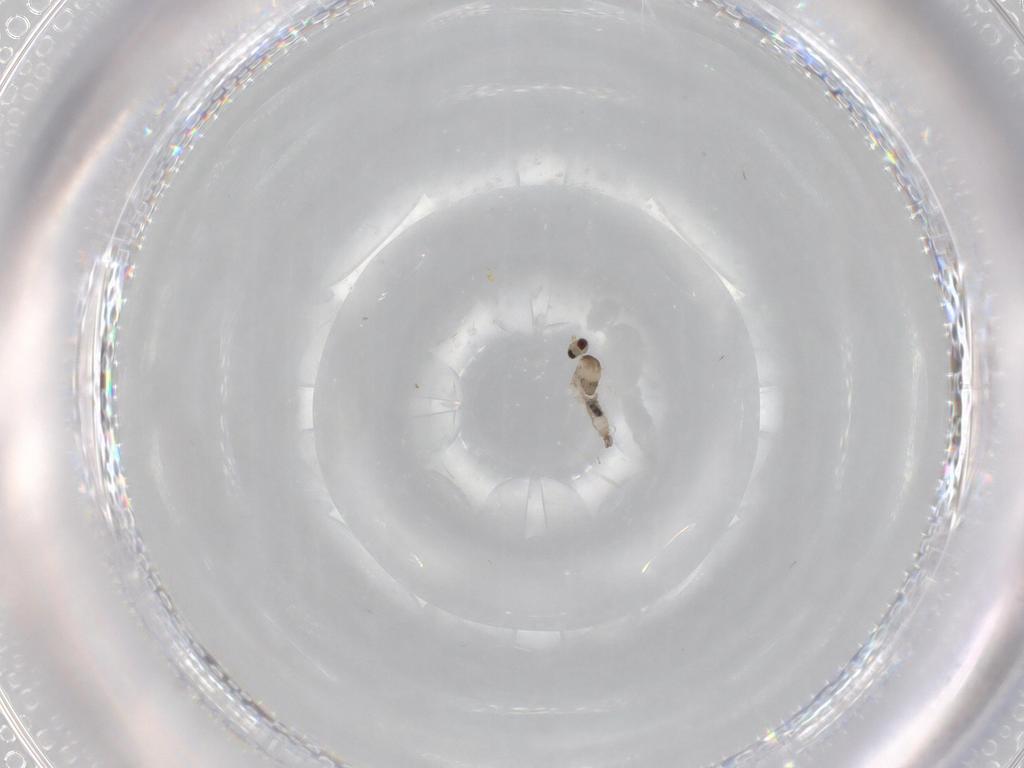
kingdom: Animalia
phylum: Arthropoda
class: Insecta
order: Diptera
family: Cecidomyiidae
